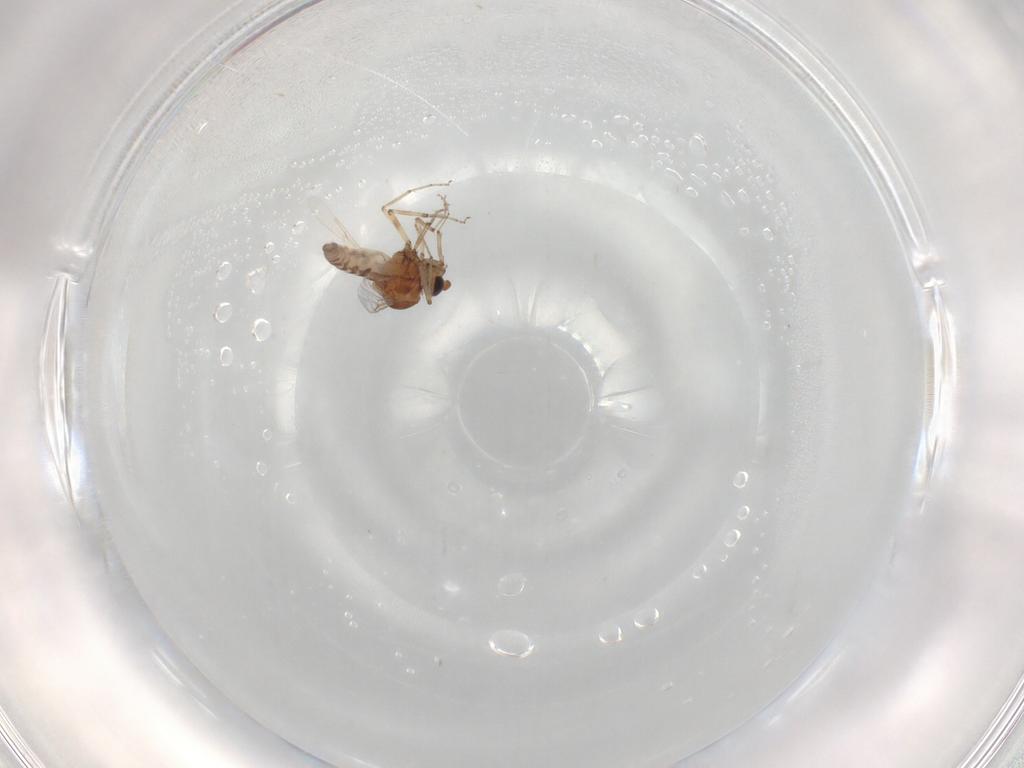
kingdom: Animalia
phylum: Arthropoda
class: Insecta
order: Diptera
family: Ceratopogonidae
